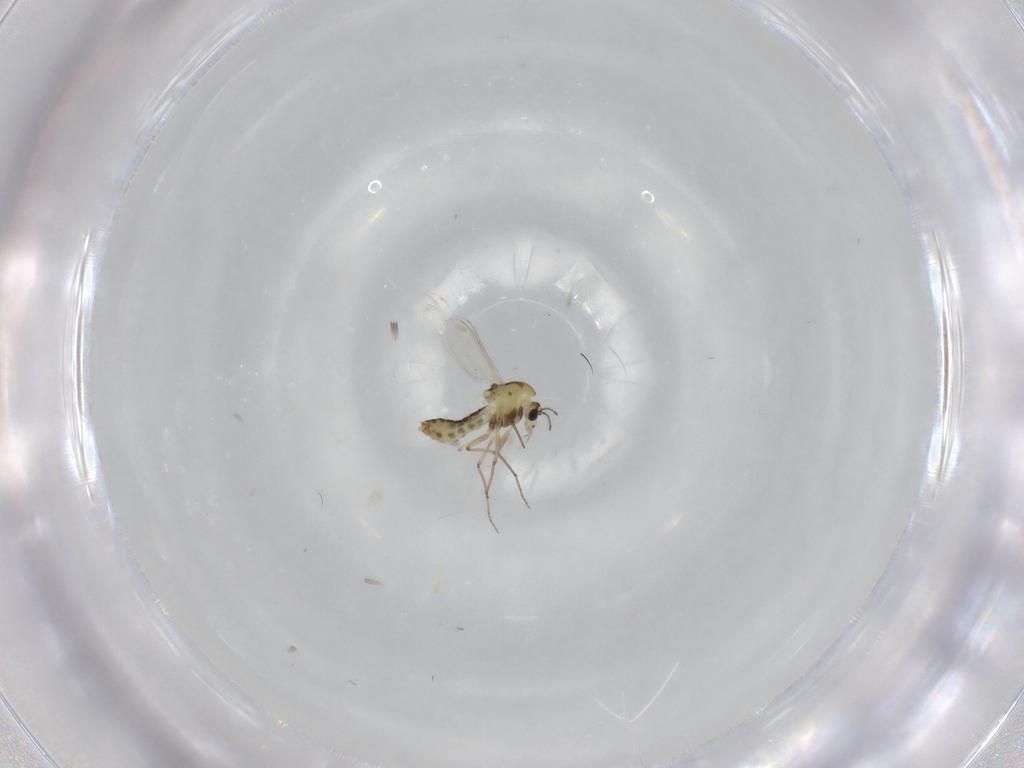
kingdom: Animalia
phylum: Arthropoda
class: Insecta
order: Diptera
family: Chironomidae
